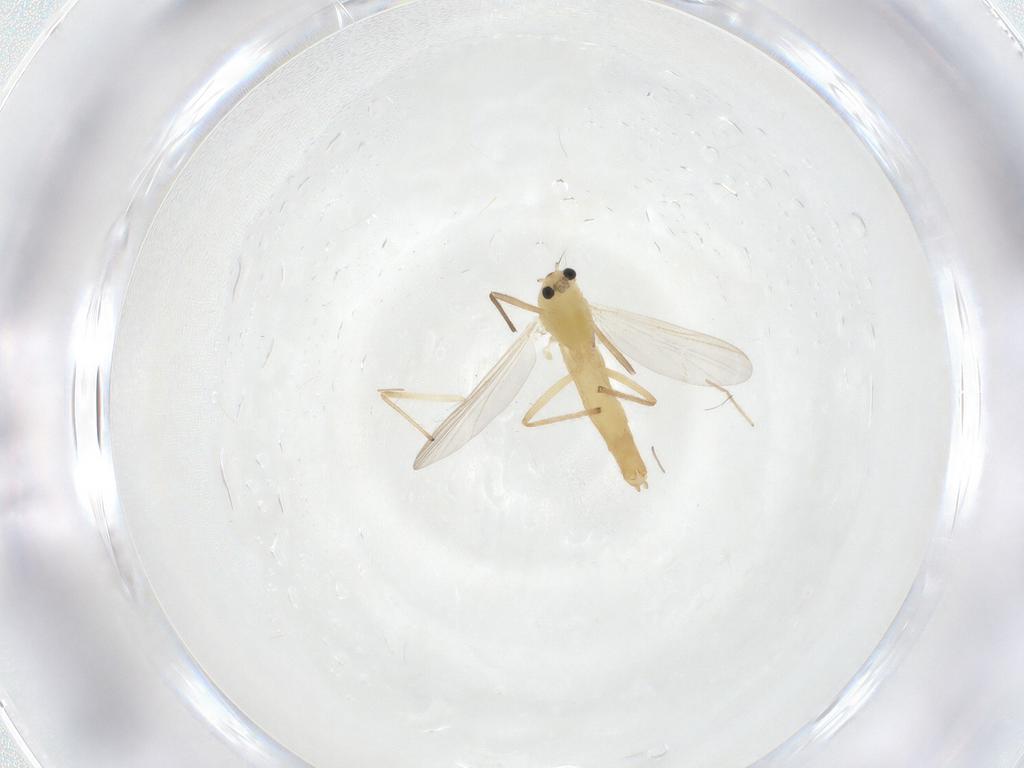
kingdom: Animalia
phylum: Arthropoda
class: Insecta
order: Diptera
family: Chironomidae
